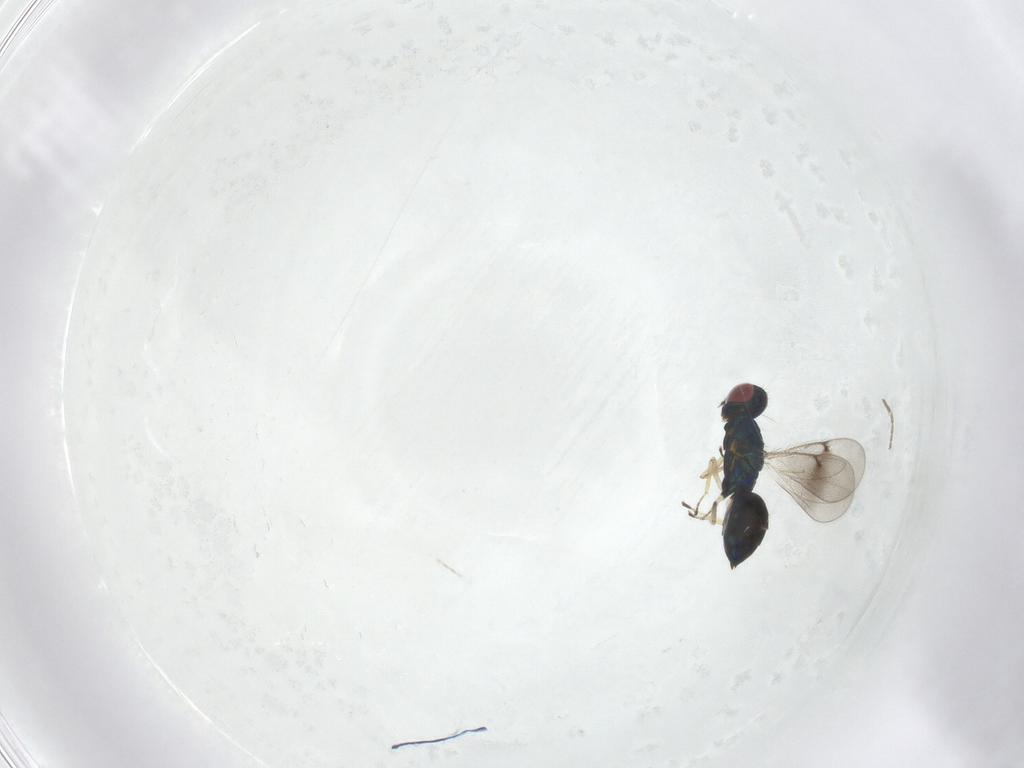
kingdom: Animalia
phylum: Arthropoda
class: Insecta
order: Hymenoptera
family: Eulophidae
